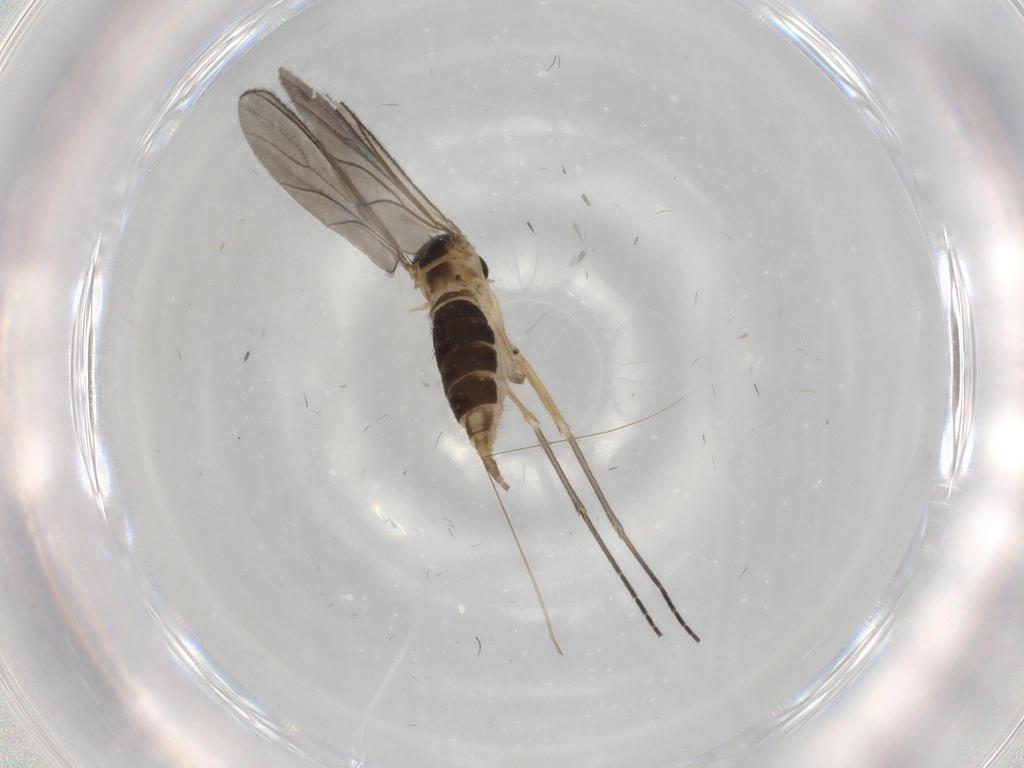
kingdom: Animalia
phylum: Arthropoda
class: Insecta
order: Diptera
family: Sciaridae
